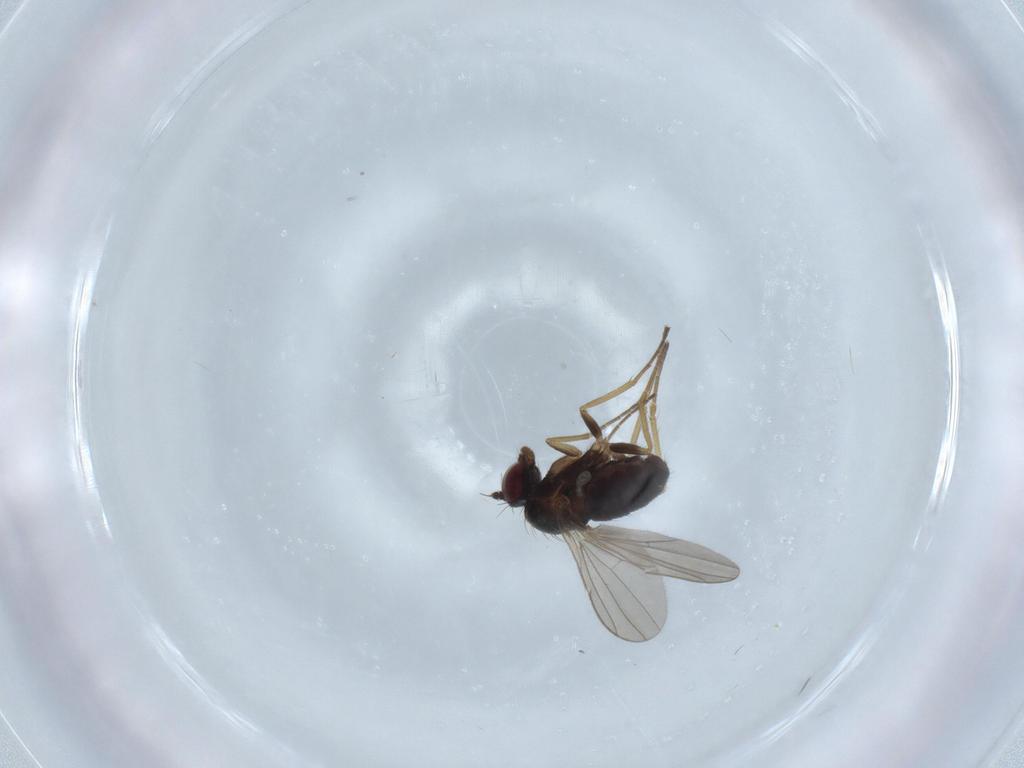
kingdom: Animalia
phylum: Arthropoda
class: Insecta
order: Diptera
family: Dolichopodidae
